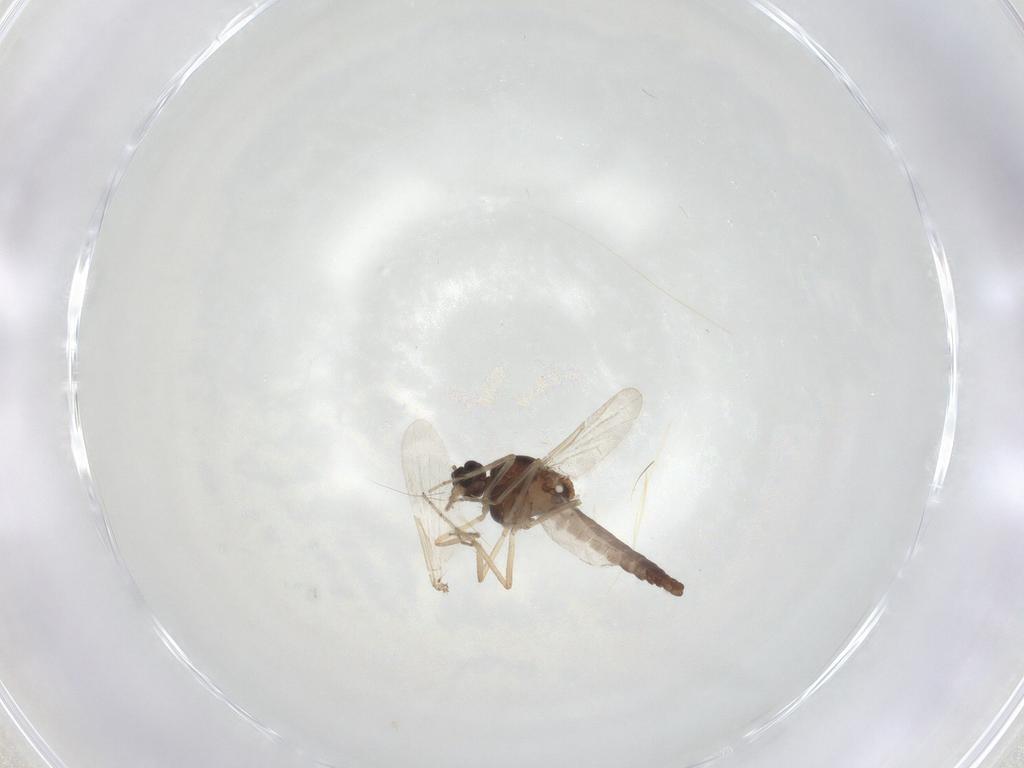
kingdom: Animalia
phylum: Arthropoda
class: Insecta
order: Diptera
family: Ceratopogonidae
